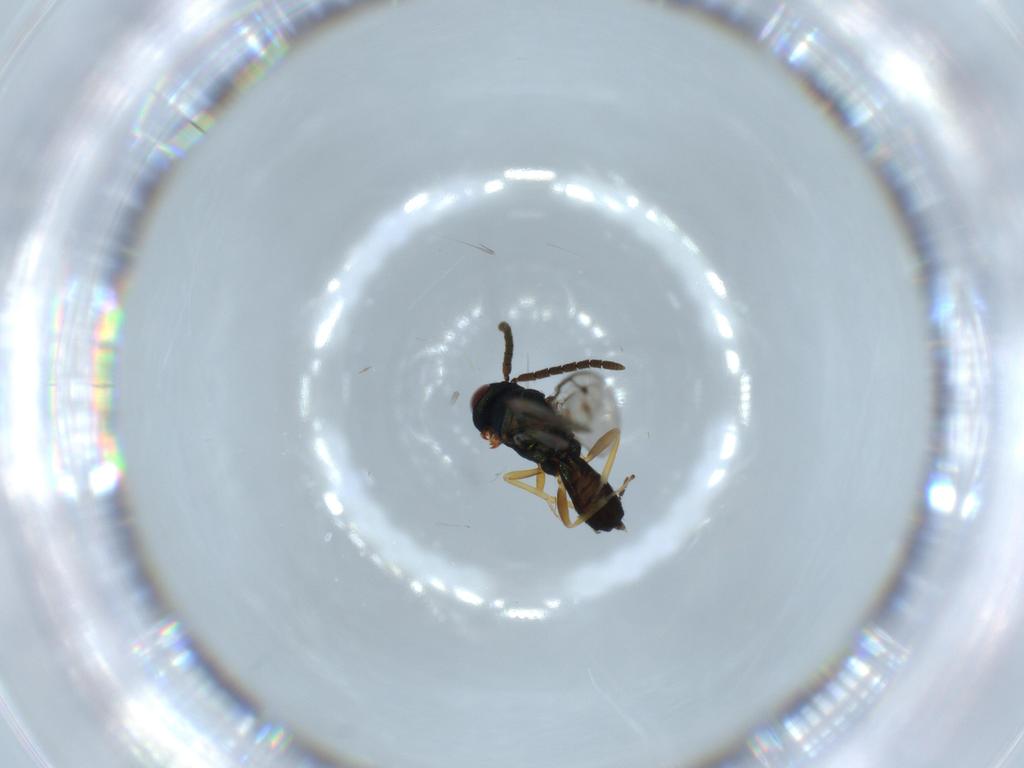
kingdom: Animalia
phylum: Arthropoda
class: Insecta
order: Hymenoptera
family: Pteromalidae
